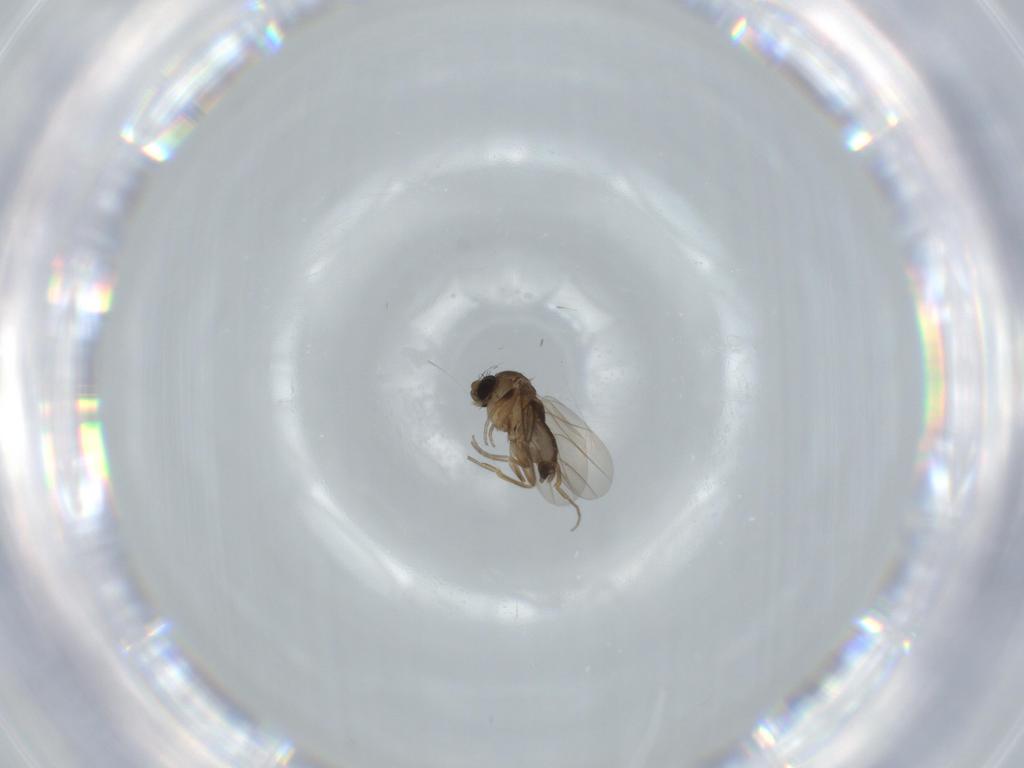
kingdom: Animalia
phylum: Arthropoda
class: Insecta
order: Diptera
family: Phoridae
